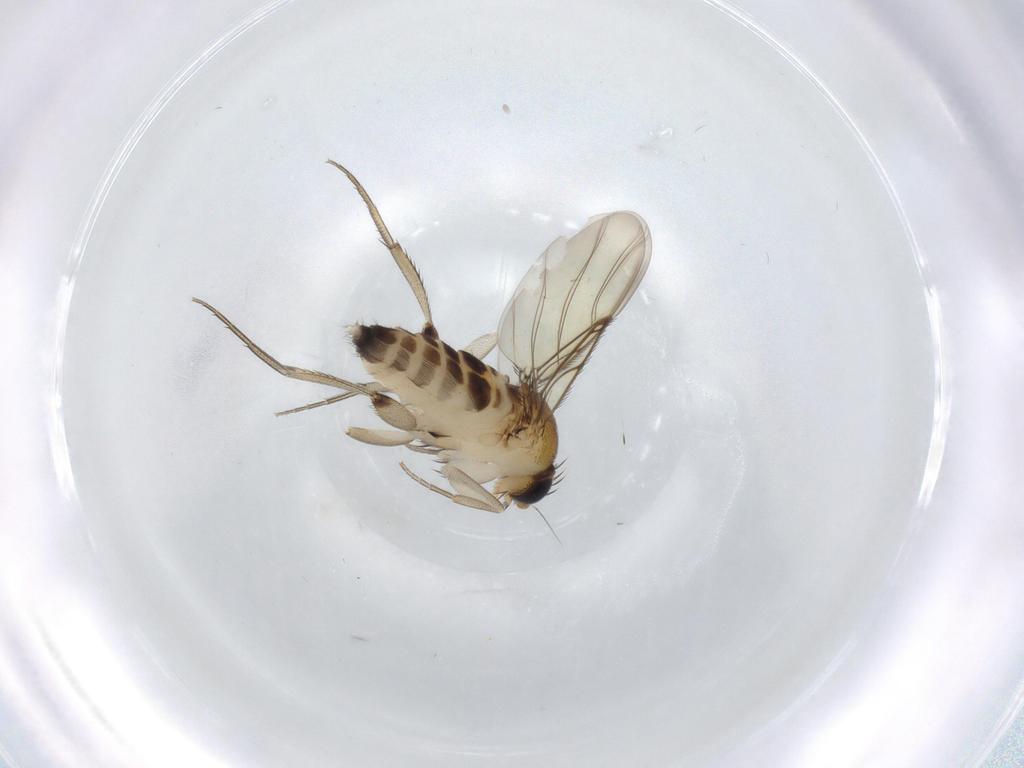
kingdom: Animalia
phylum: Arthropoda
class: Insecta
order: Diptera
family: Phoridae
